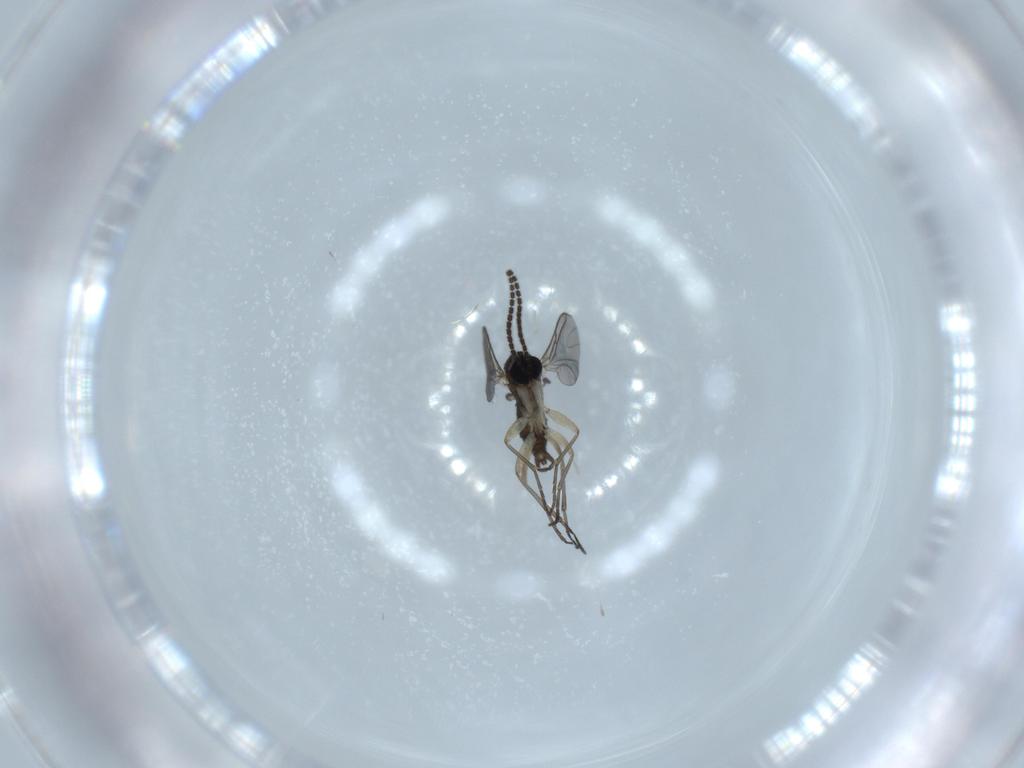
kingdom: Animalia
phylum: Arthropoda
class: Insecta
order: Diptera
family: Sciaridae
